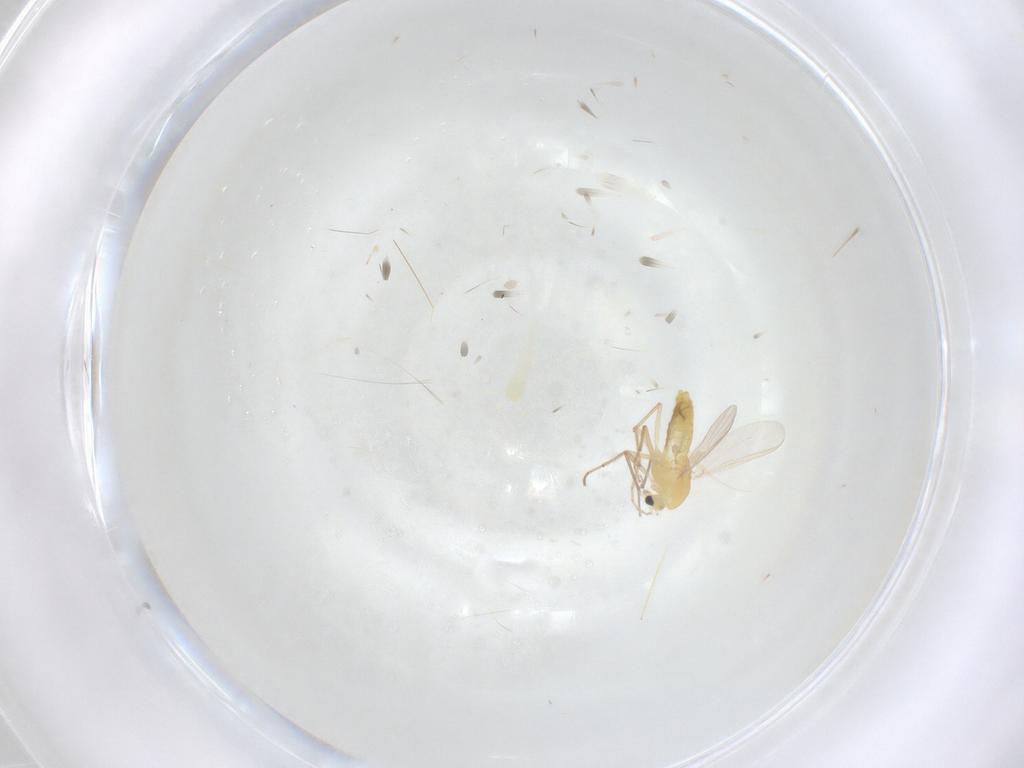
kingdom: Animalia
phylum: Arthropoda
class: Insecta
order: Diptera
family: Chironomidae
